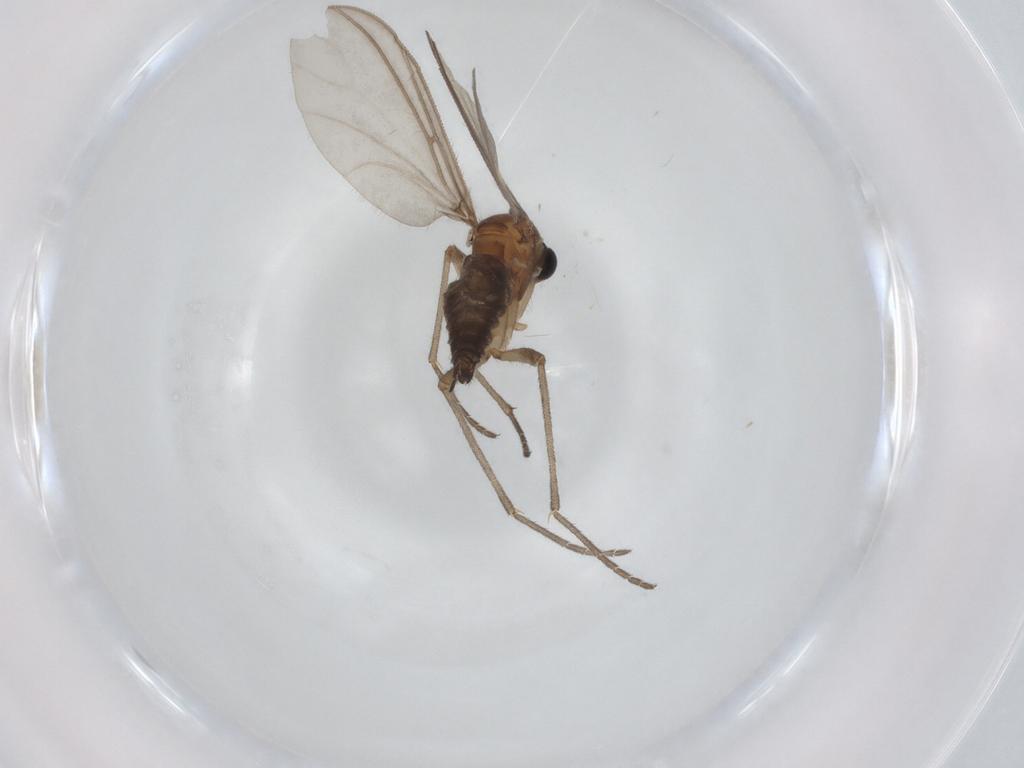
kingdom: Animalia
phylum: Arthropoda
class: Insecta
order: Diptera
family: Sciaridae
